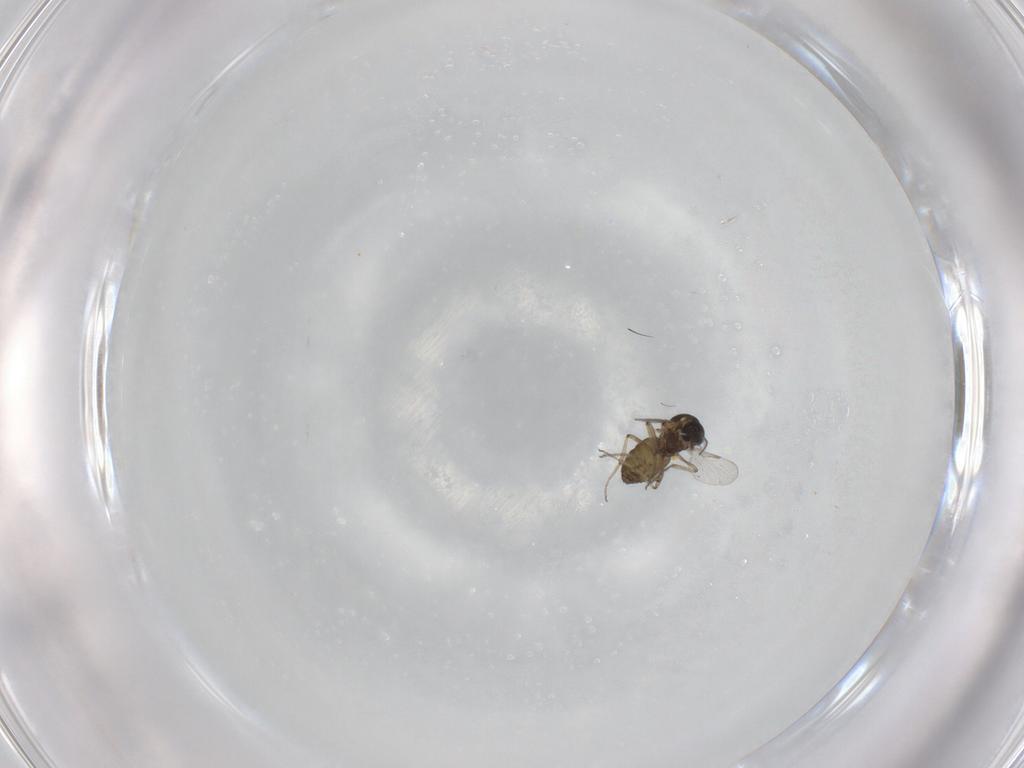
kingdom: Animalia
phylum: Arthropoda
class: Insecta
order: Diptera
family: Ceratopogonidae
